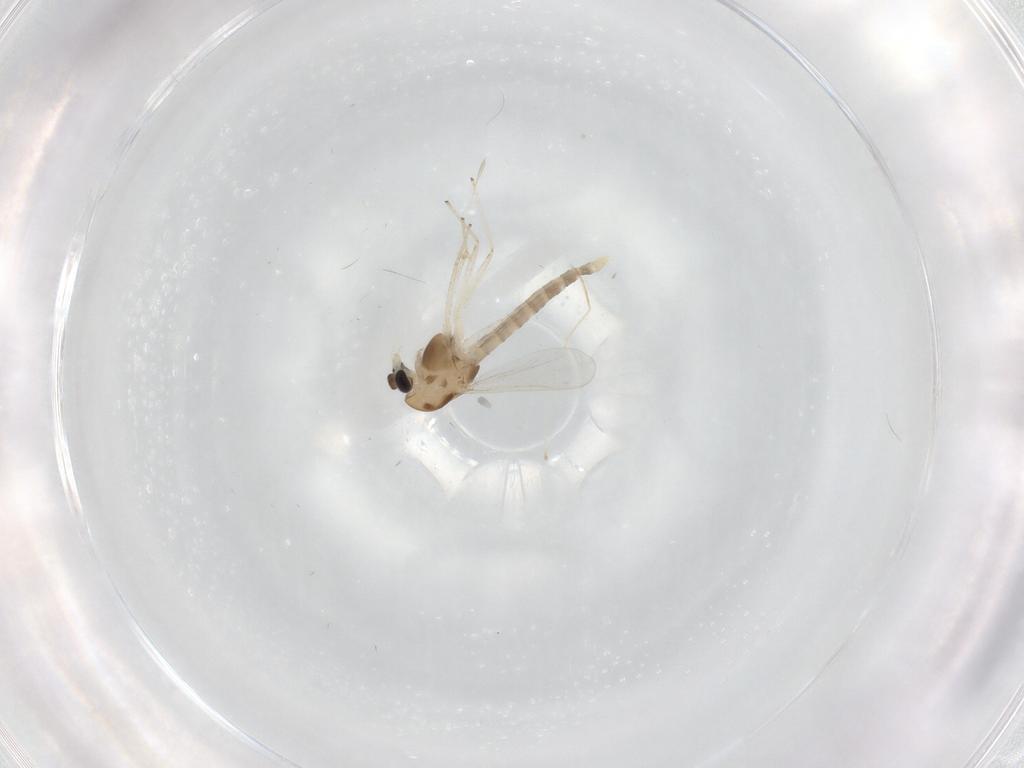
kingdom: Animalia
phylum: Arthropoda
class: Insecta
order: Diptera
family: Cecidomyiidae
